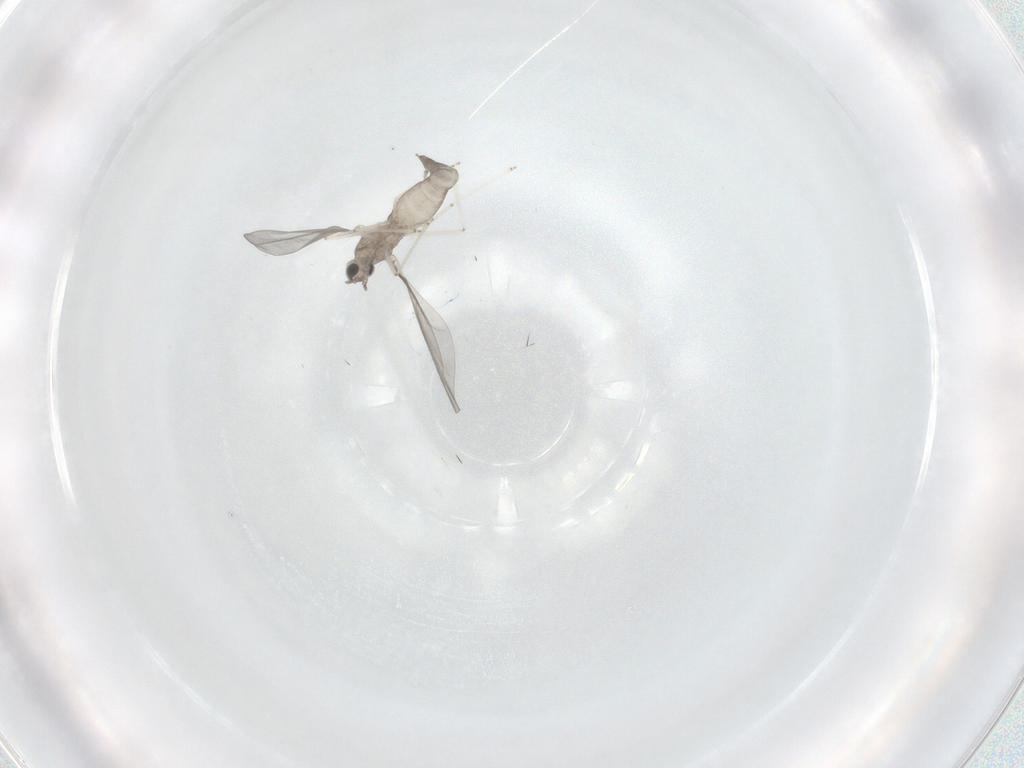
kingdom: Animalia
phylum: Arthropoda
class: Insecta
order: Diptera
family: Cecidomyiidae
